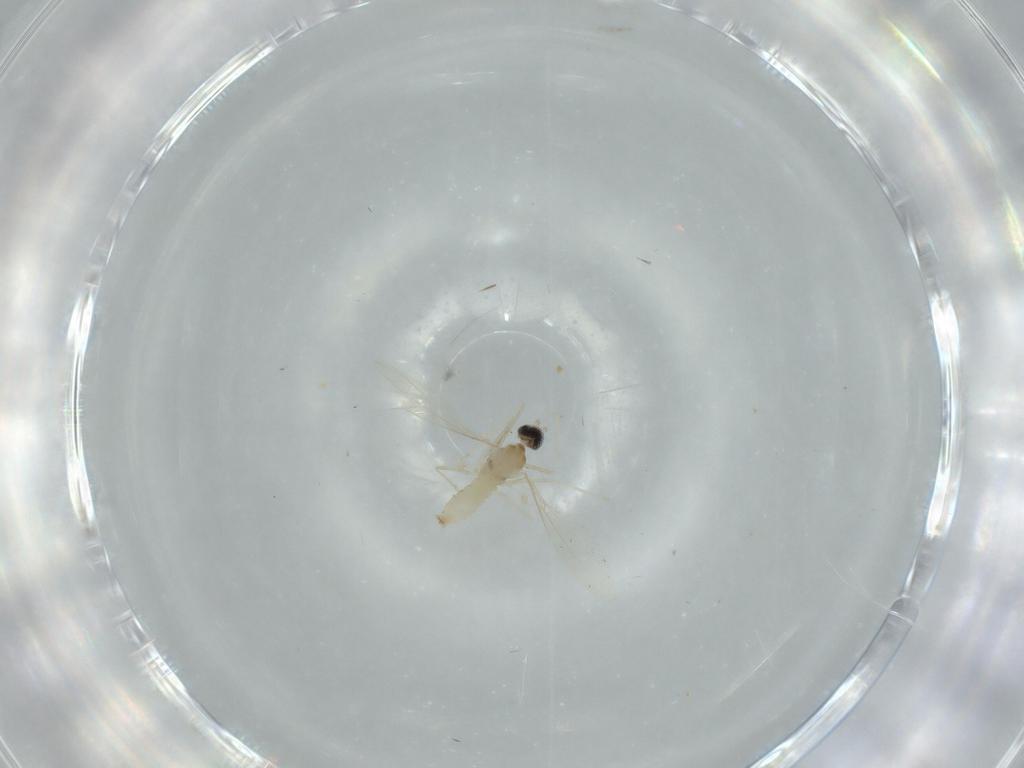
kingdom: Animalia
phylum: Arthropoda
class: Insecta
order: Diptera
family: Cecidomyiidae
